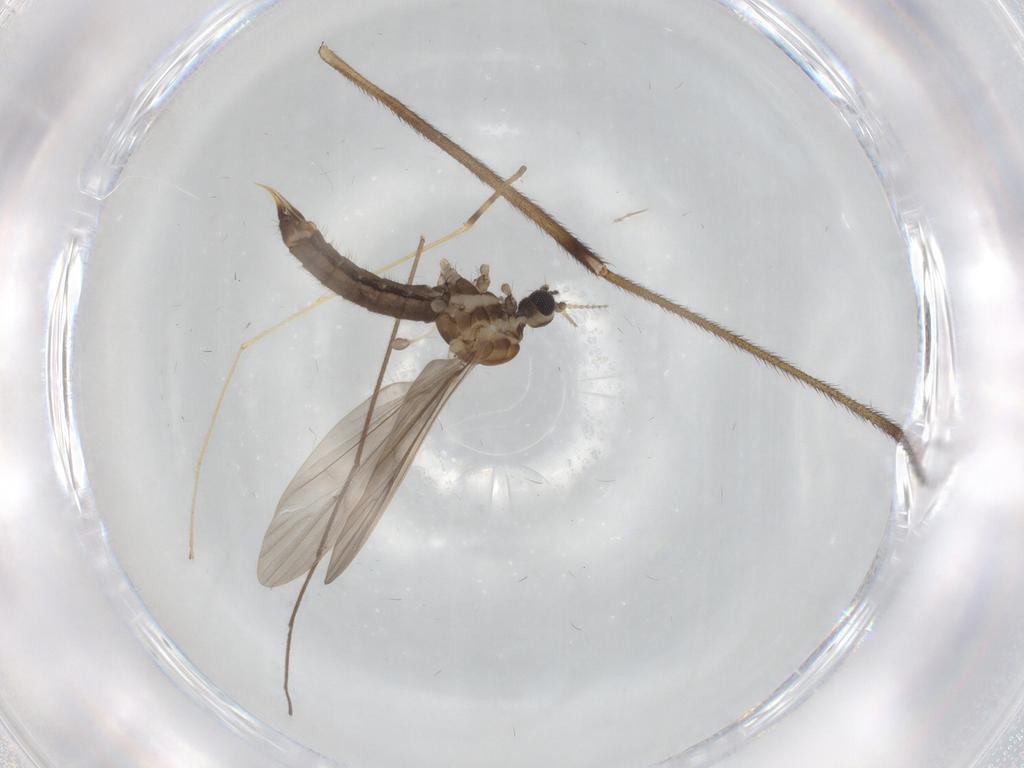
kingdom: Animalia
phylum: Arthropoda
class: Insecta
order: Diptera
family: Limoniidae
